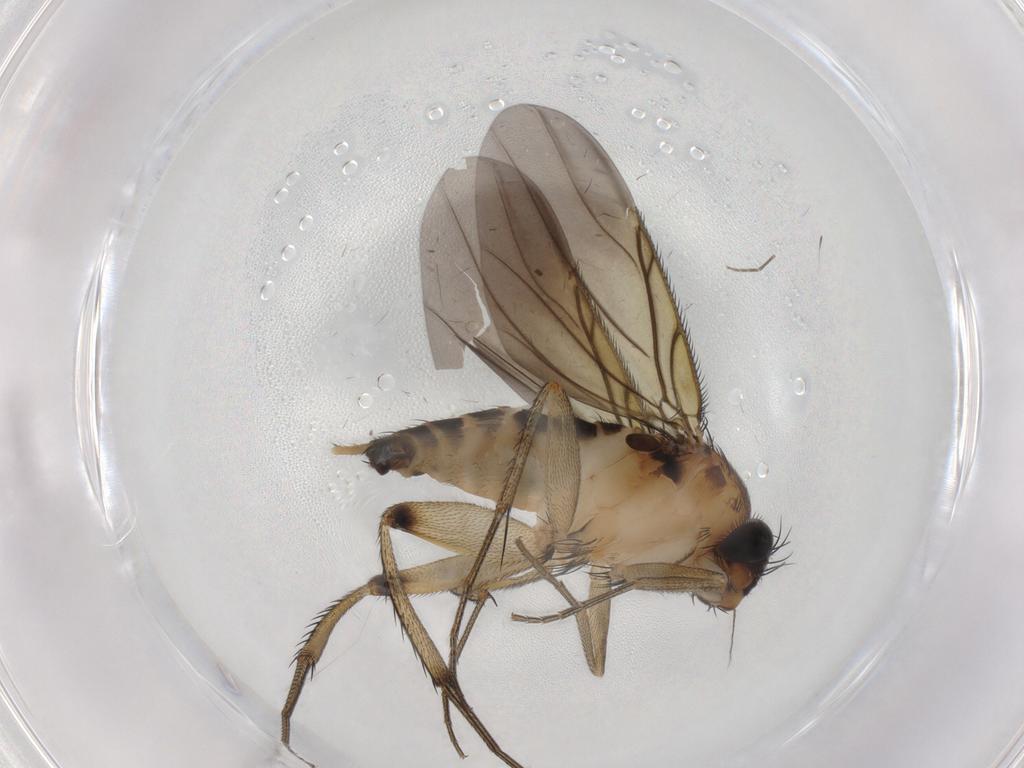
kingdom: Animalia
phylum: Arthropoda
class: Insecta
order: Diptera
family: Phoridae
